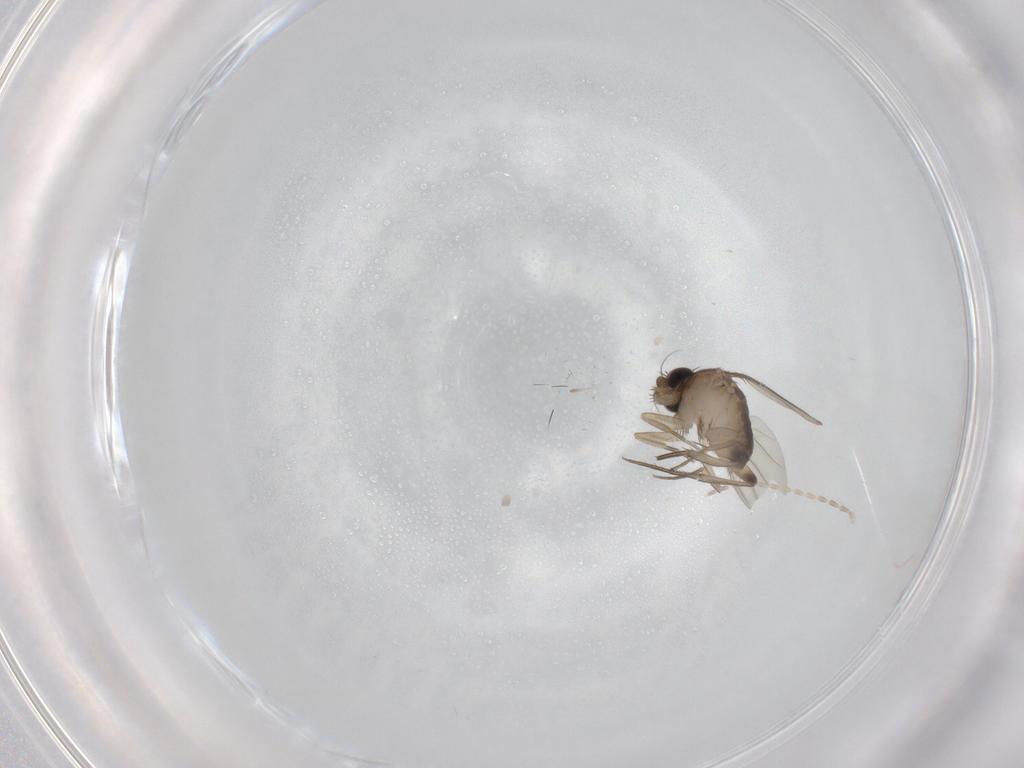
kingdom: Animalia
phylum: Arthropoda
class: Insecta
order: Diptera
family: Phoridae
